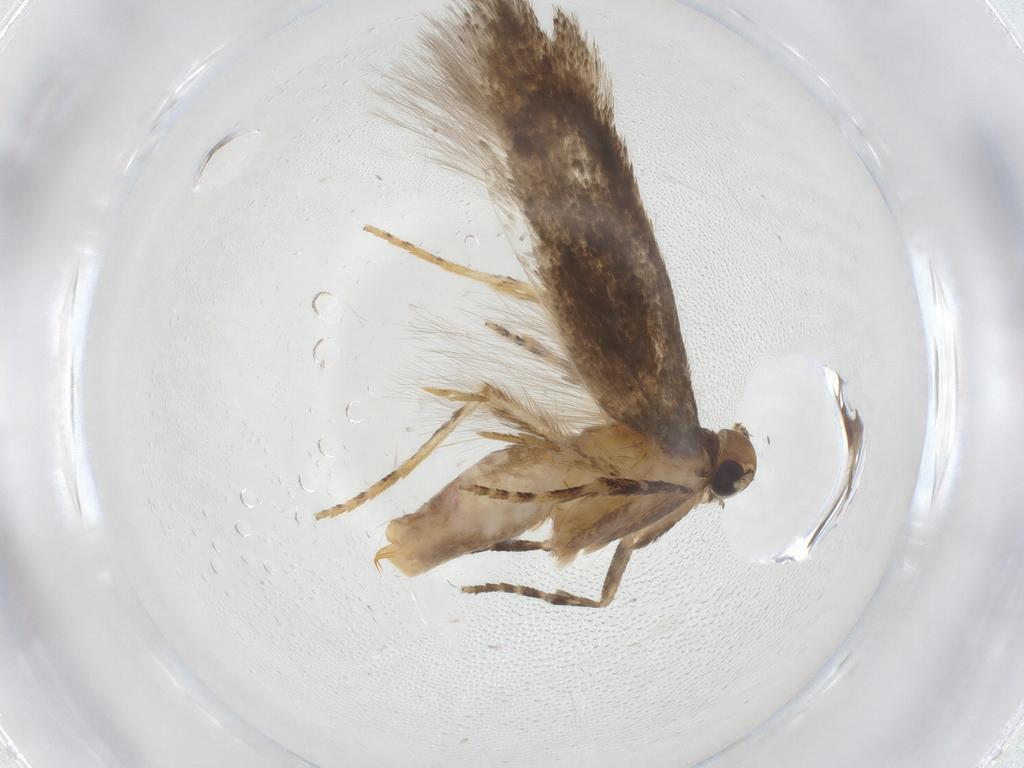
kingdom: Animalia
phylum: Arthropoda
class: Insecta
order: Lepidoptera
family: Gelechiidae
